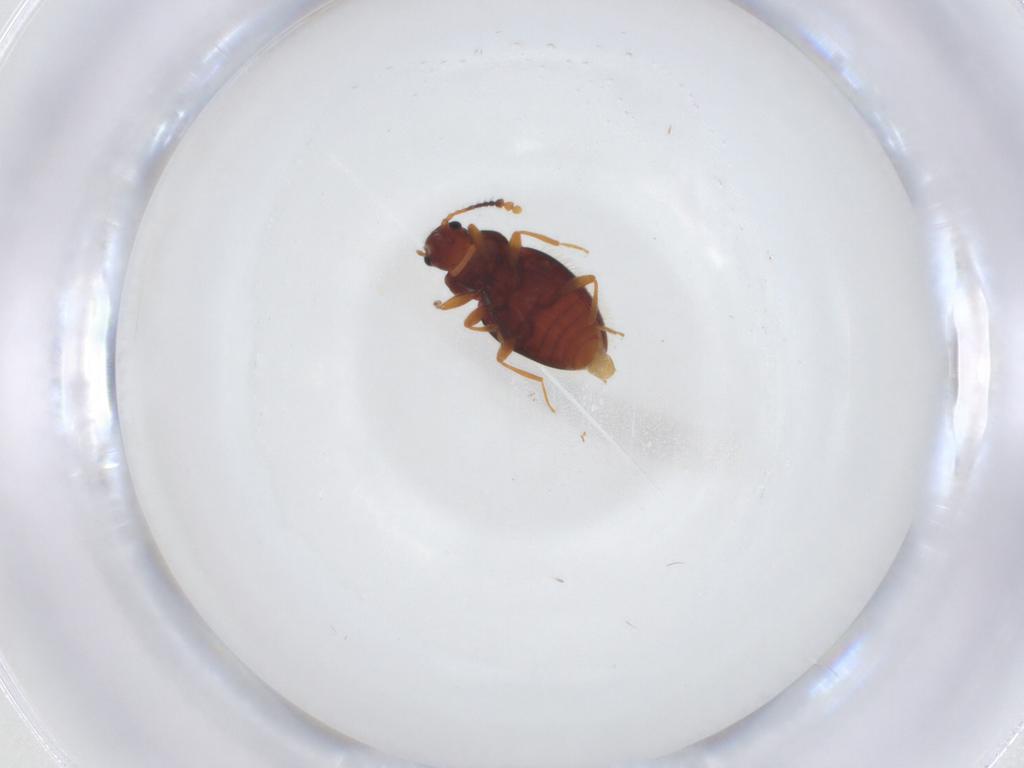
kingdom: Animalia
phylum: Arthropoda
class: Insecta
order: Coleoptera
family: Erotylidae
